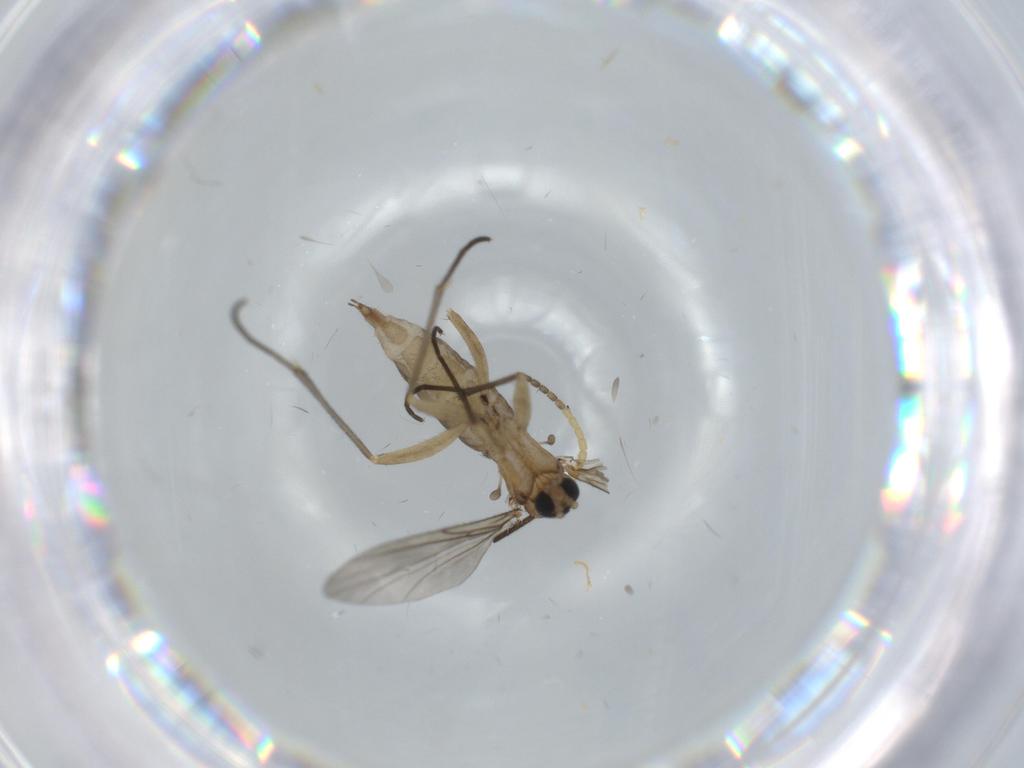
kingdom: Animalia
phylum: Arthropoda
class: Insecta
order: Diptera
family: Sciaridae
